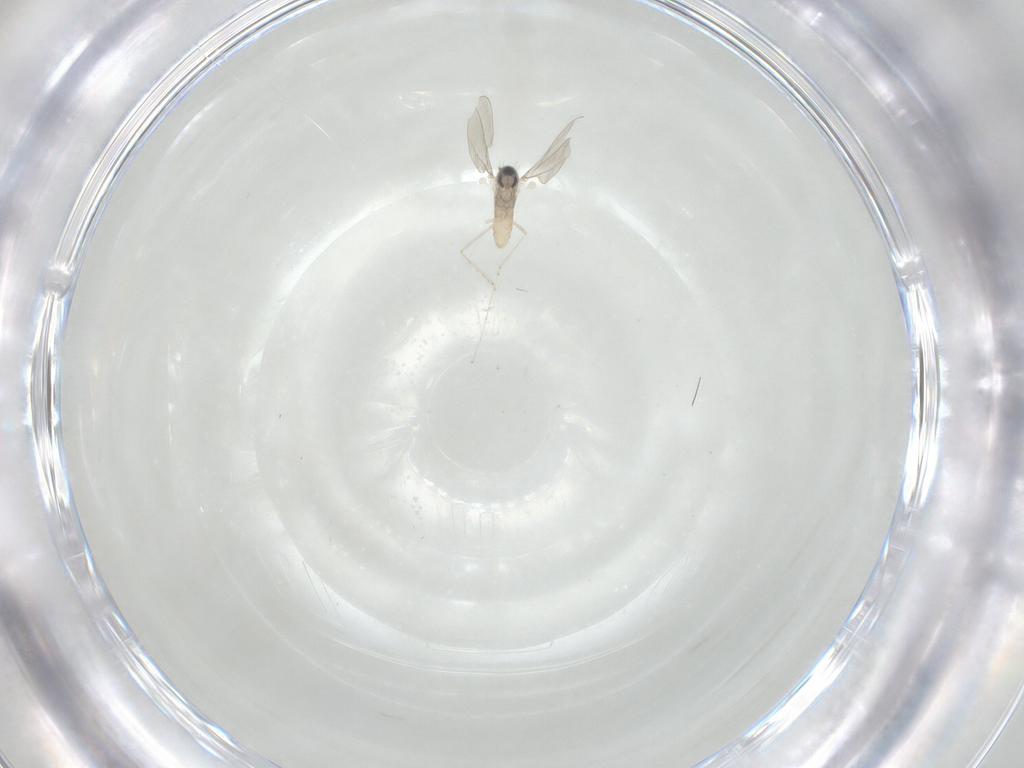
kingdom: Animalia
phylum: Arthropoda
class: Insecta
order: Diptera
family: Cecidomyiidae
